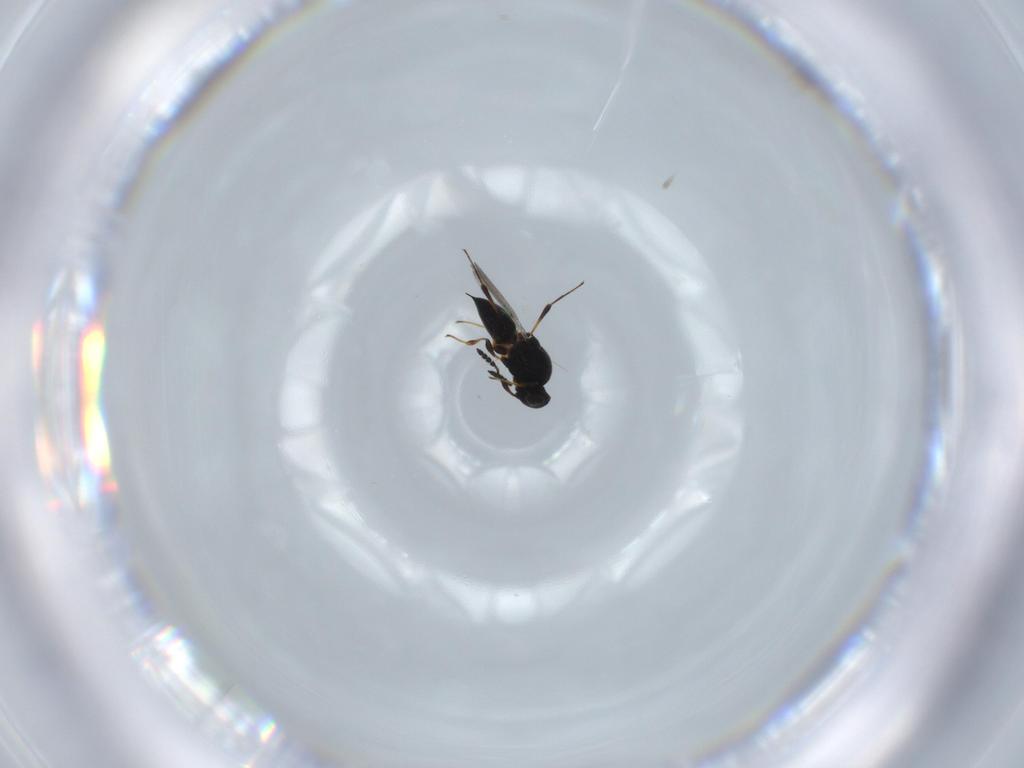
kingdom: Animalia
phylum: Arthropoda
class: Insecta
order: Hymenoptera
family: Platygastridae
